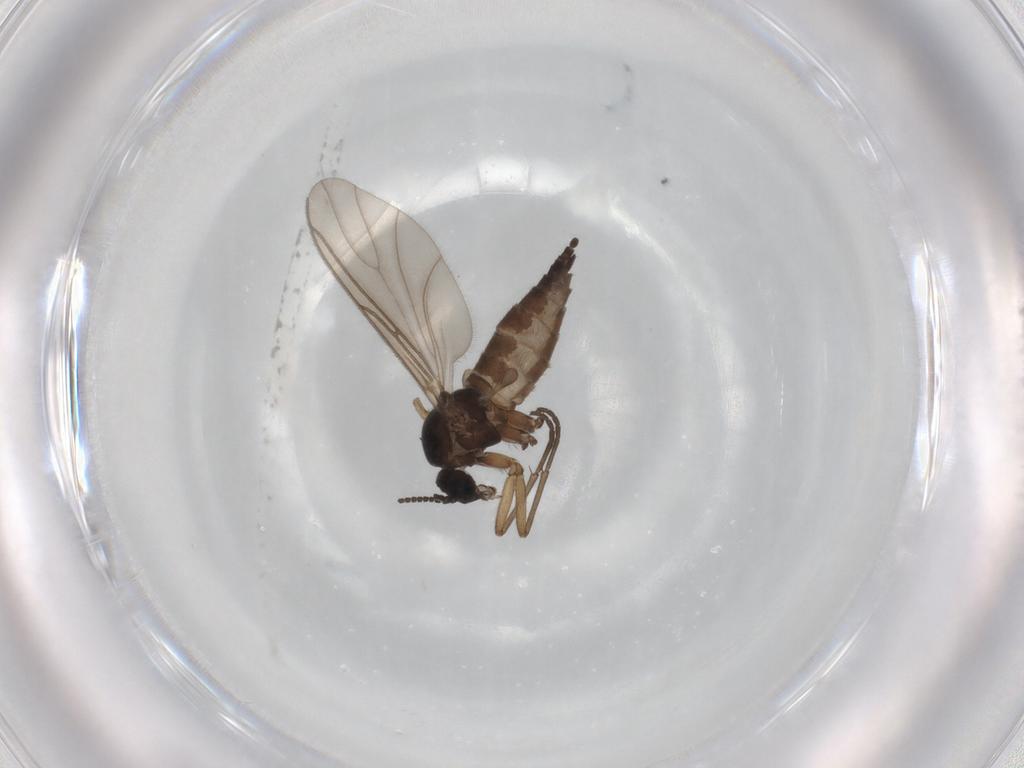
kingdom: Animalia
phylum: Arthropoda
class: Insecta
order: Diptera
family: Sciaridae
